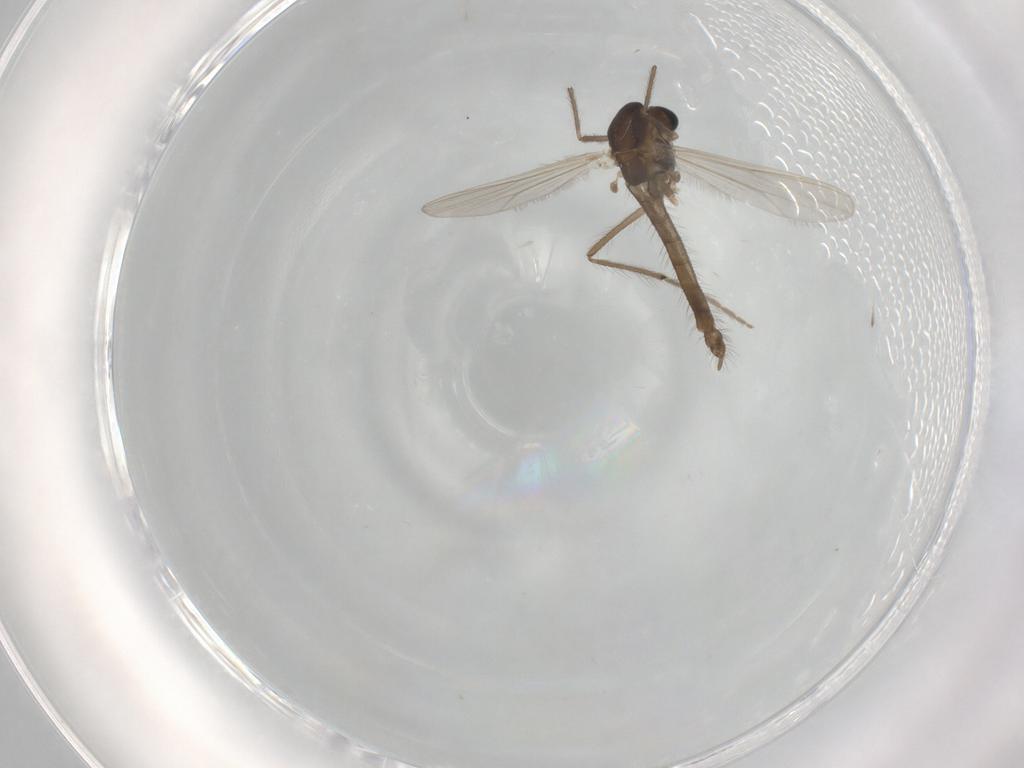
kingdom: Animalia
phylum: Arthropoda
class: Insecta
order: Diptera
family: Chironomidae
